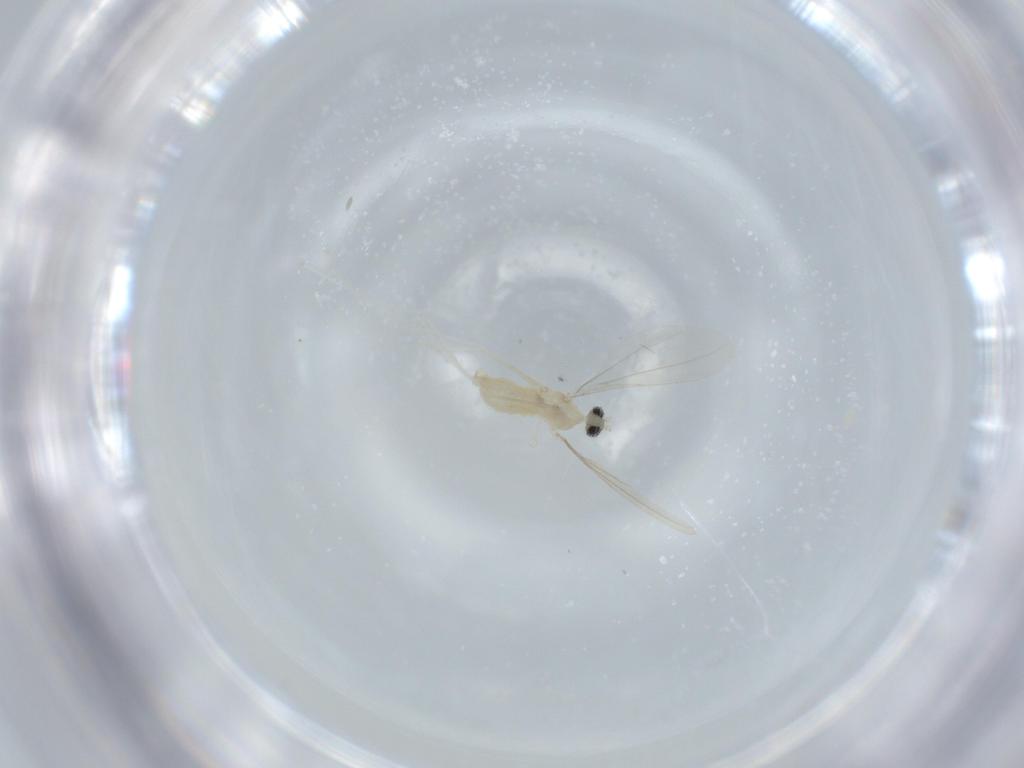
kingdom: Animalia
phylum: Arthropoda
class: Insecta
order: Diptera
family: Cecidomyiidae
